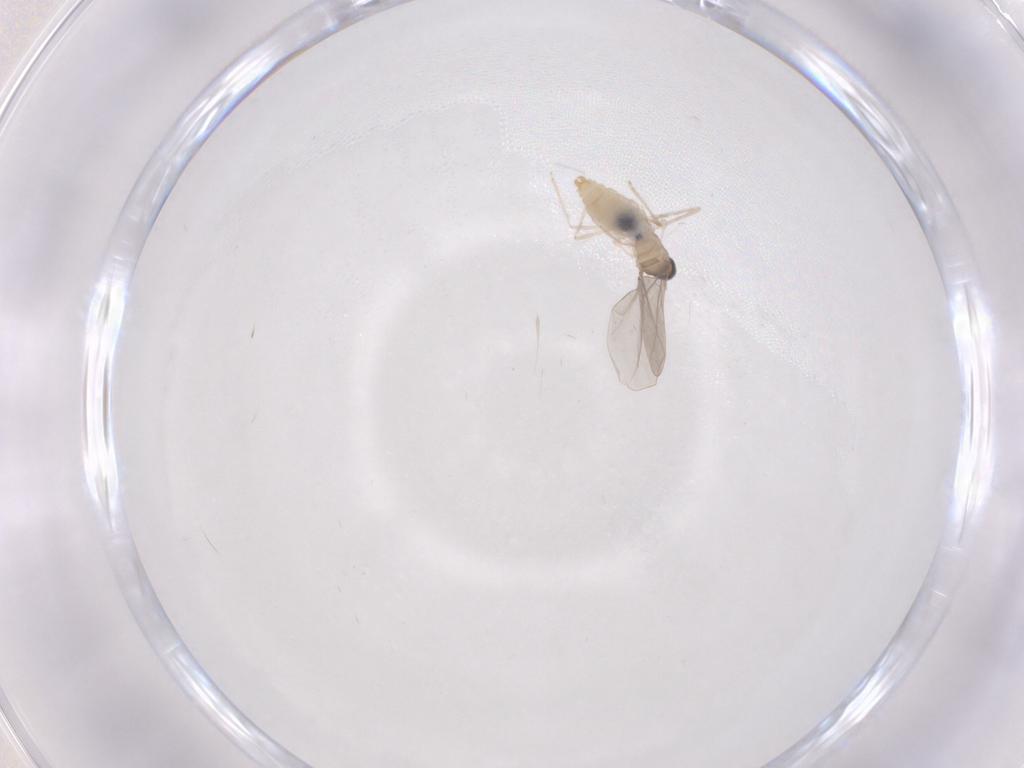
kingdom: Animalia
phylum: Arthropoda
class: Insecta
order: Diptera
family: Cecidomyiidae
